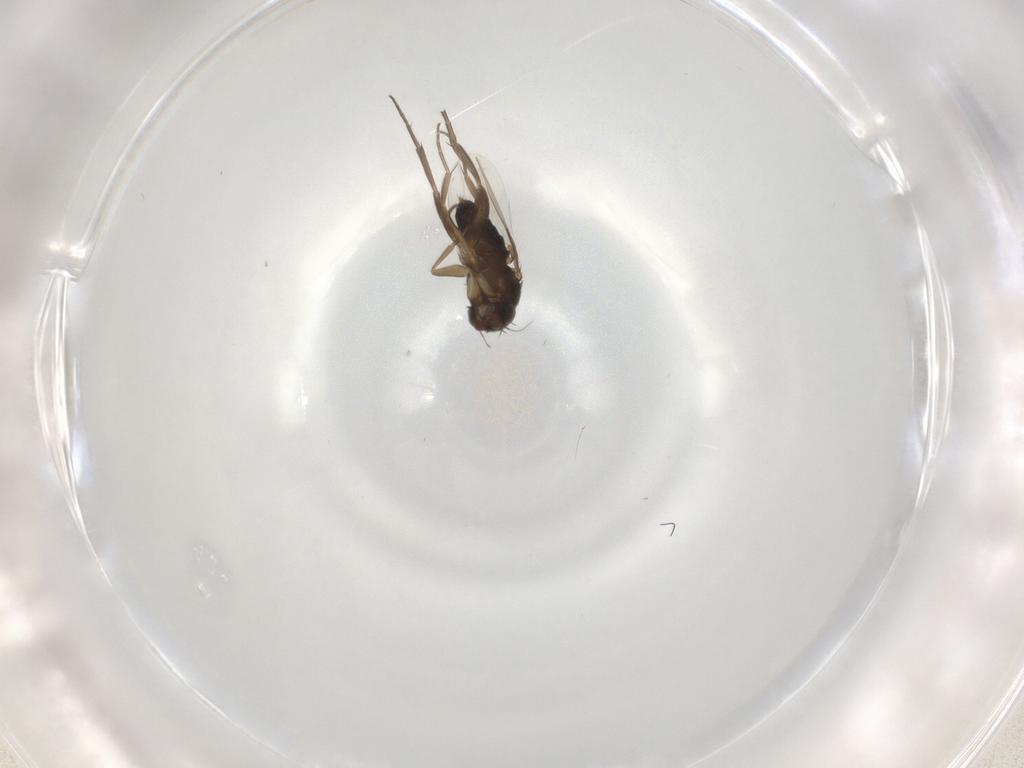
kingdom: Animalia
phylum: Arthropoda
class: Insecta
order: Diptera
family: Phoridae
